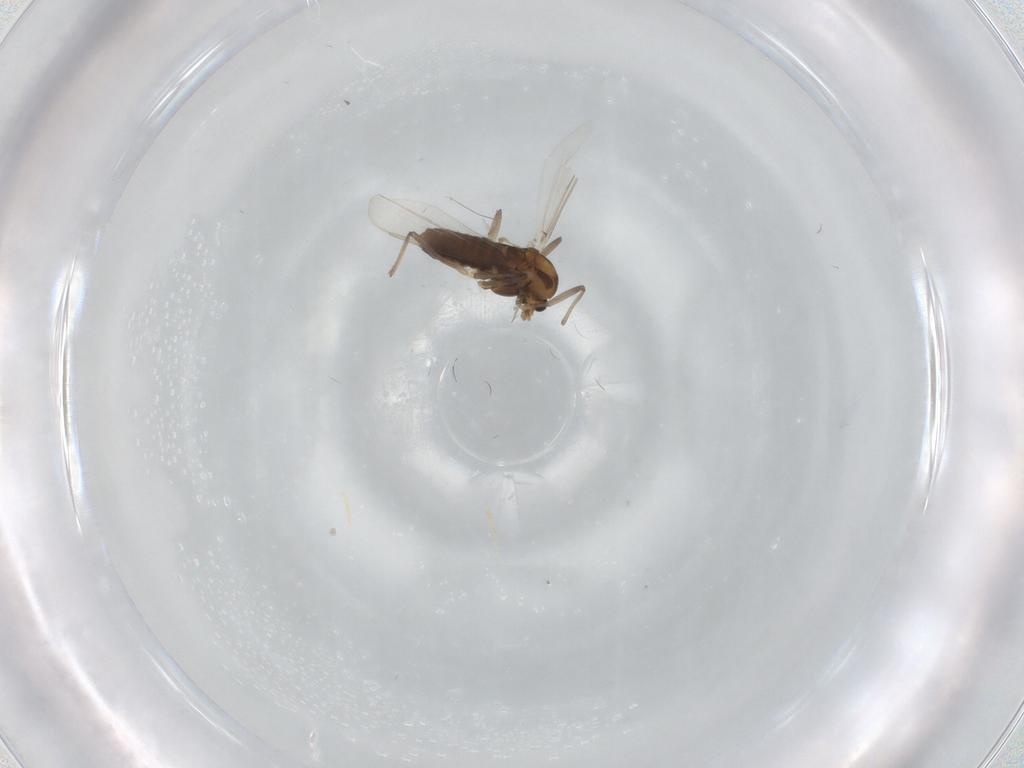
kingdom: Animalia
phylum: Arthropoda
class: Insecta
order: Diptera
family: Chironomidae
